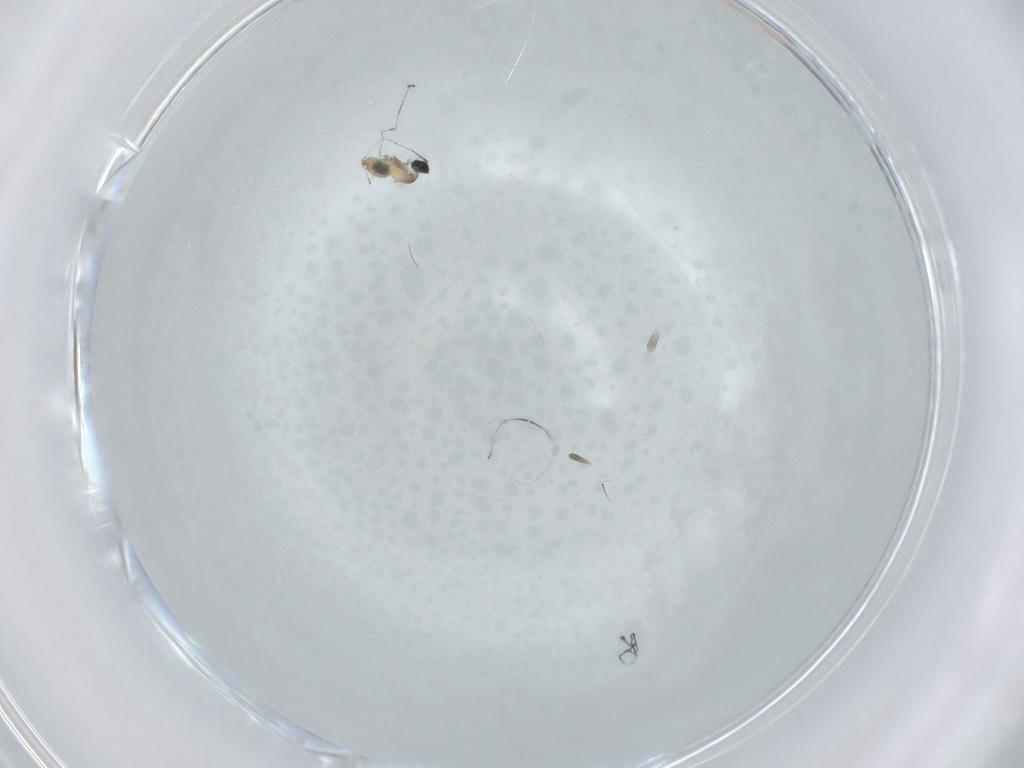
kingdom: Animalia
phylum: Arthropoda
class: Insecta
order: Diptera
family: Cecidomyiidae
